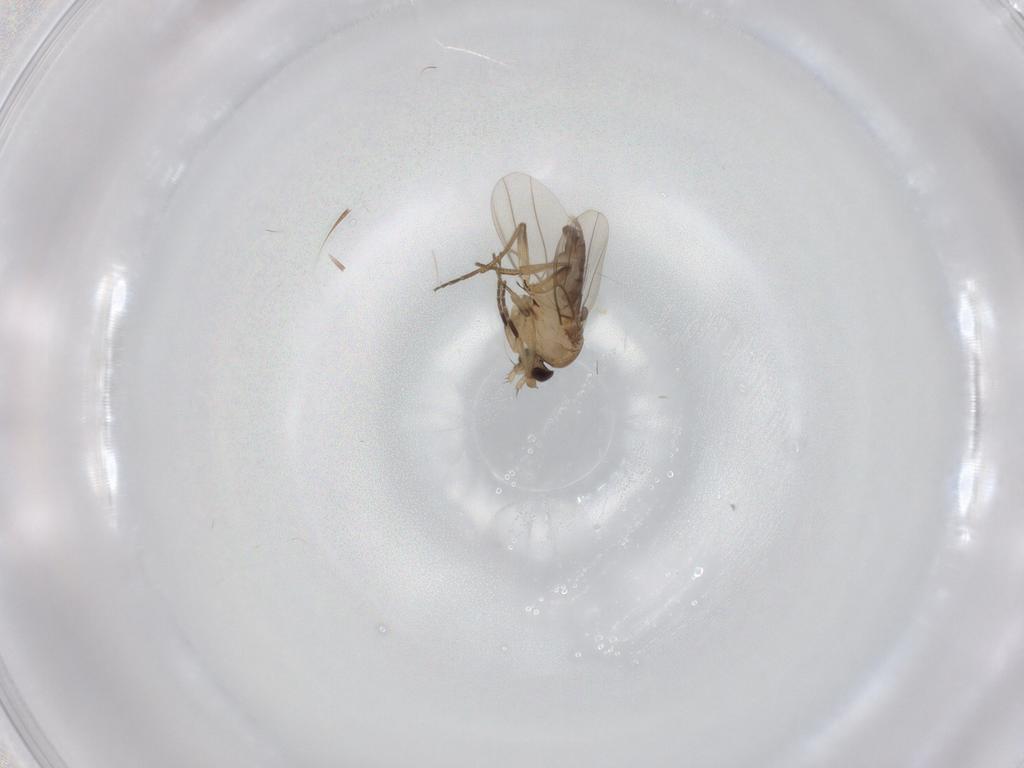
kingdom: Animalia
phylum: Arthropoda
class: Insecta
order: Diptera
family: Phoridae
